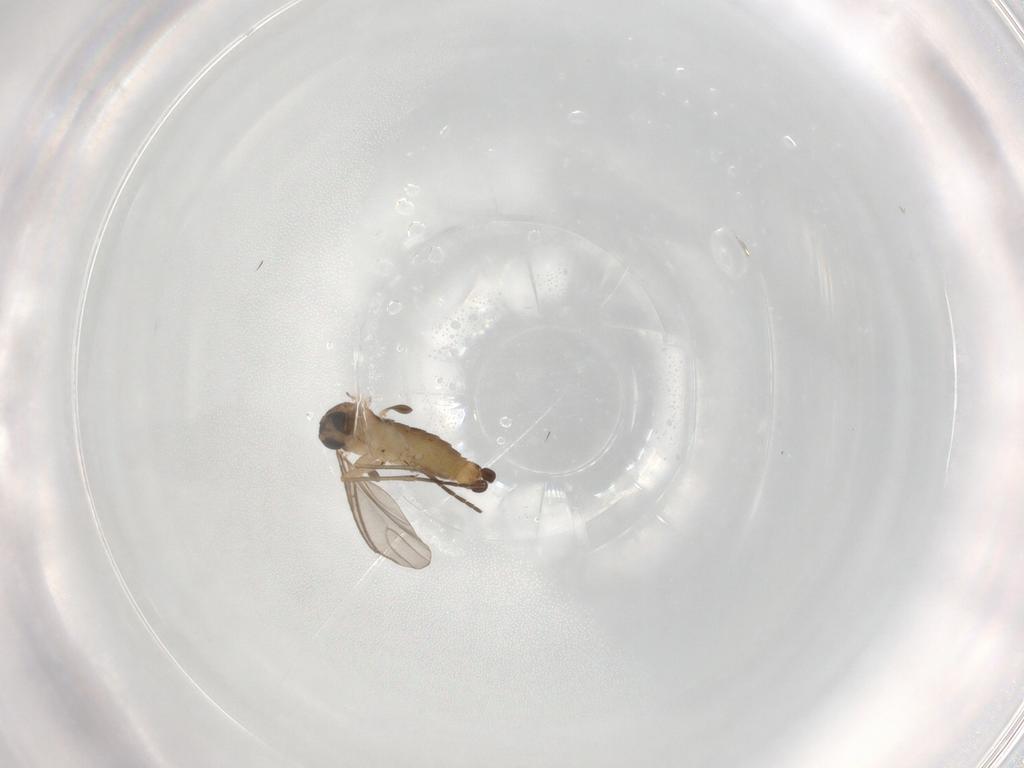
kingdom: Animalia
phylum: Arthropoda
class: Insecta
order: Diptera
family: Sciaridae
